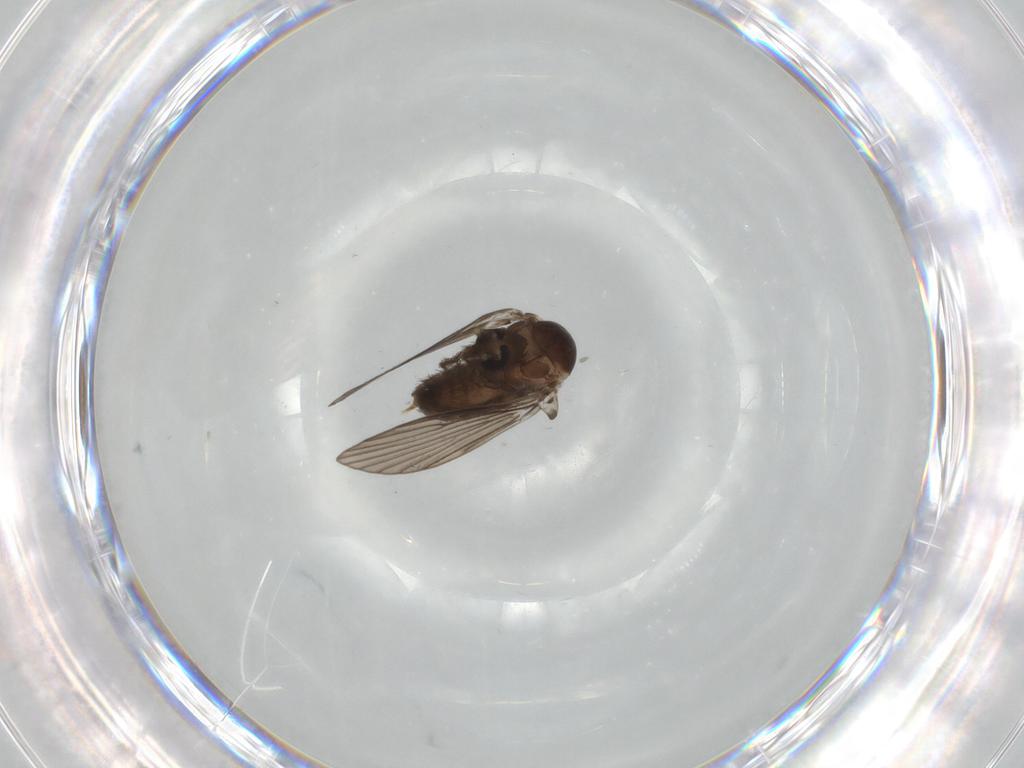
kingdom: Animalia
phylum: Arthropoda
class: Insecta
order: Diptera
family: Psychodidae
